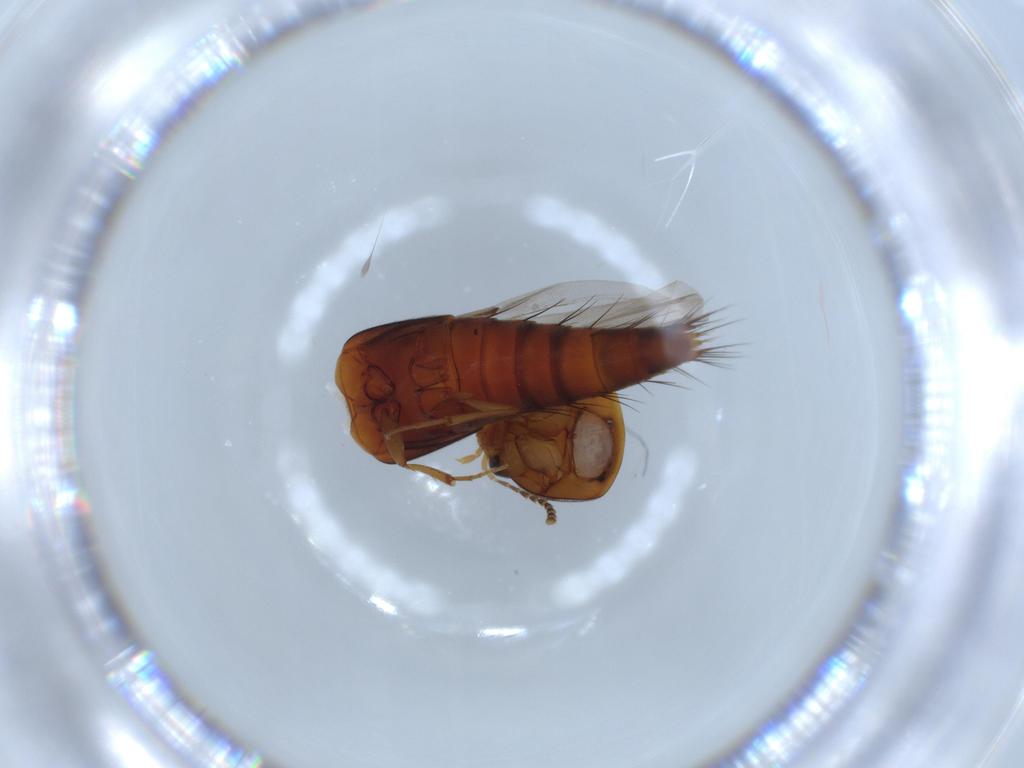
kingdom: Animalia
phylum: Arthropoda
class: Insecta
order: Coleoptera
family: Staphylinidae
